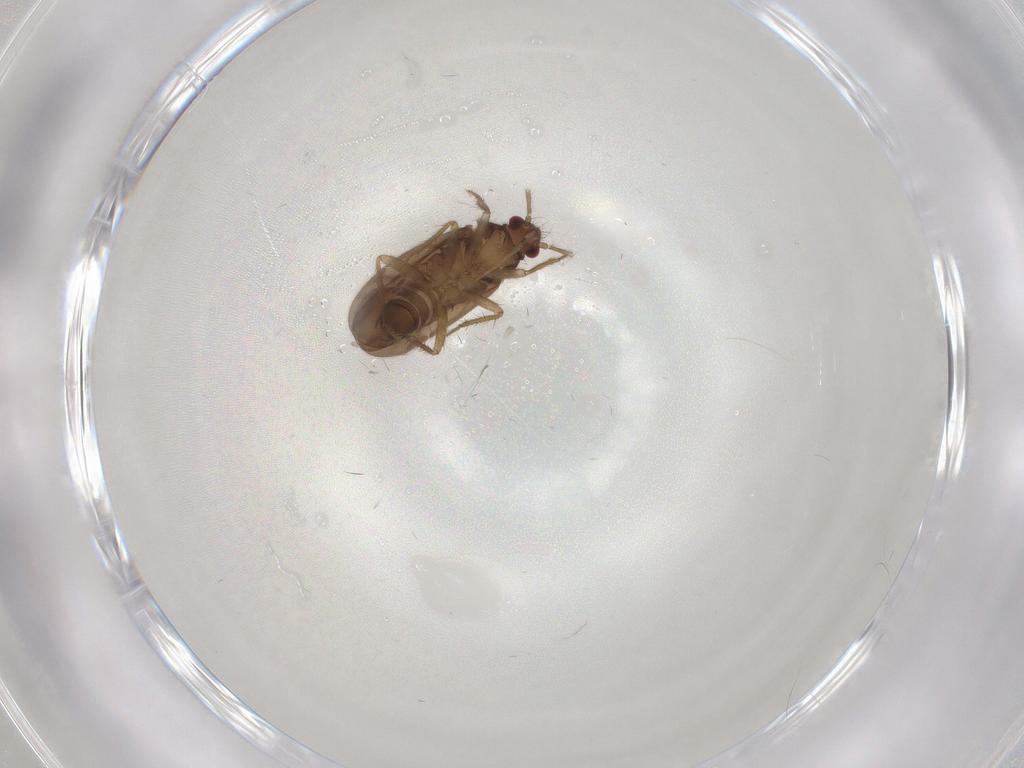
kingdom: Animalia
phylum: Arthropoda
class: Insecta
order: Hemiptera
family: Ceratocombidae
